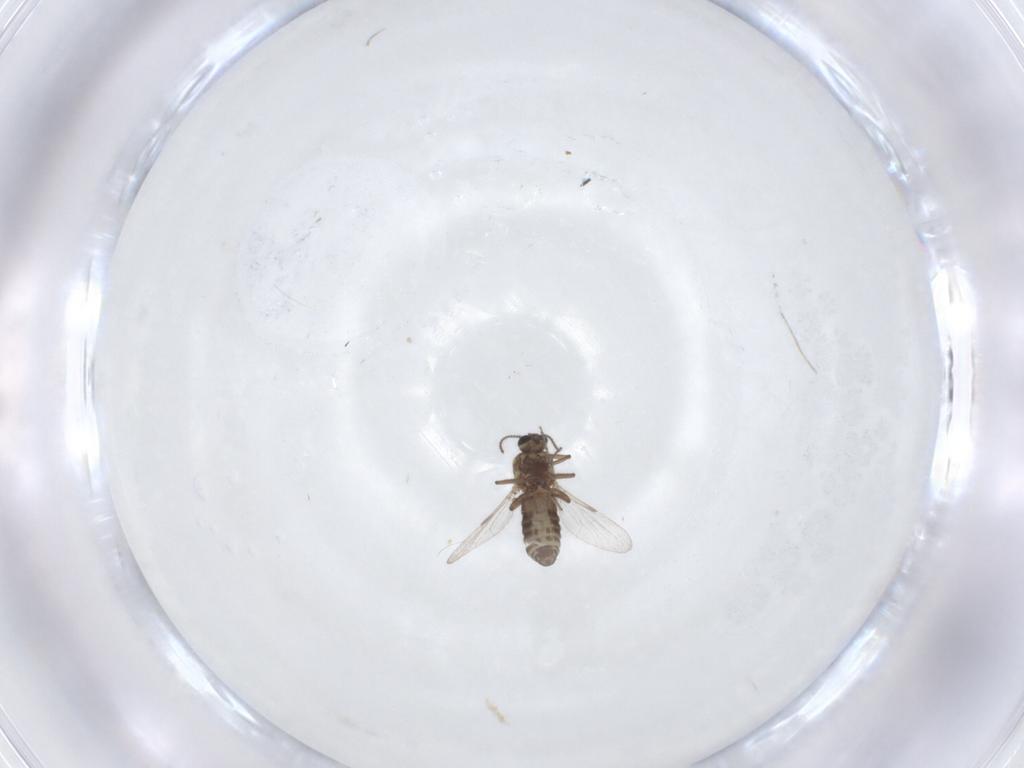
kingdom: Animalia
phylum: Arthropoda
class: Insecta
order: Diptera
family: Ceratopogonidae
